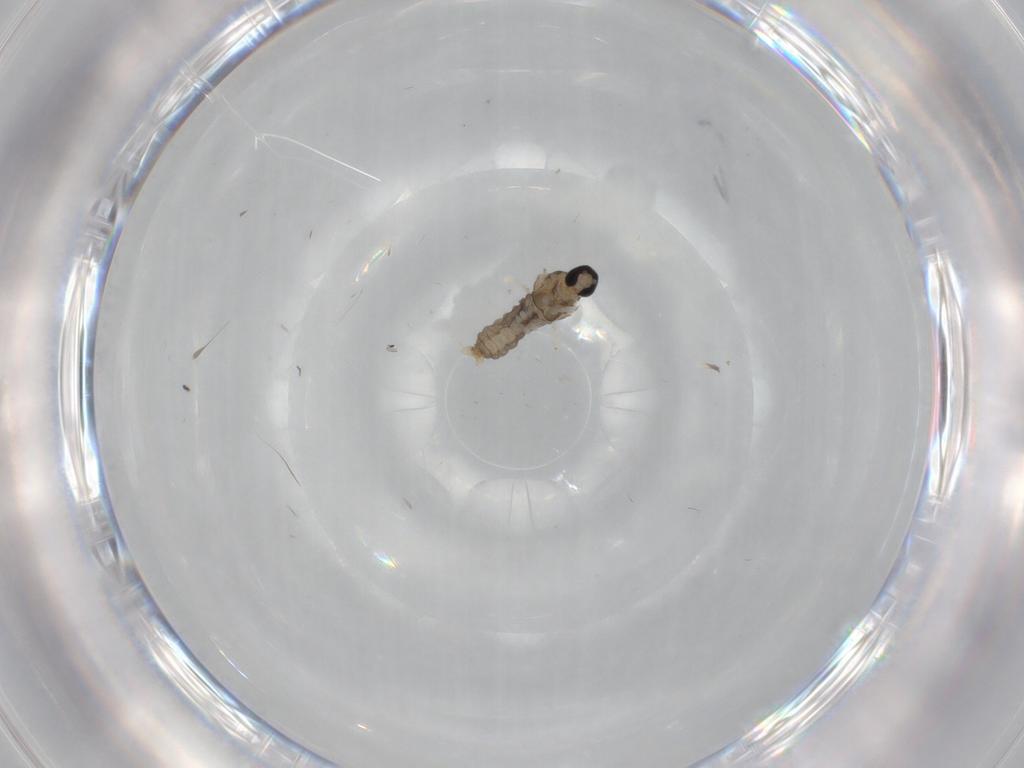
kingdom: Animalia
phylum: Arthropoda
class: Insecta
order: Diptera
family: Cecidomyiidae
